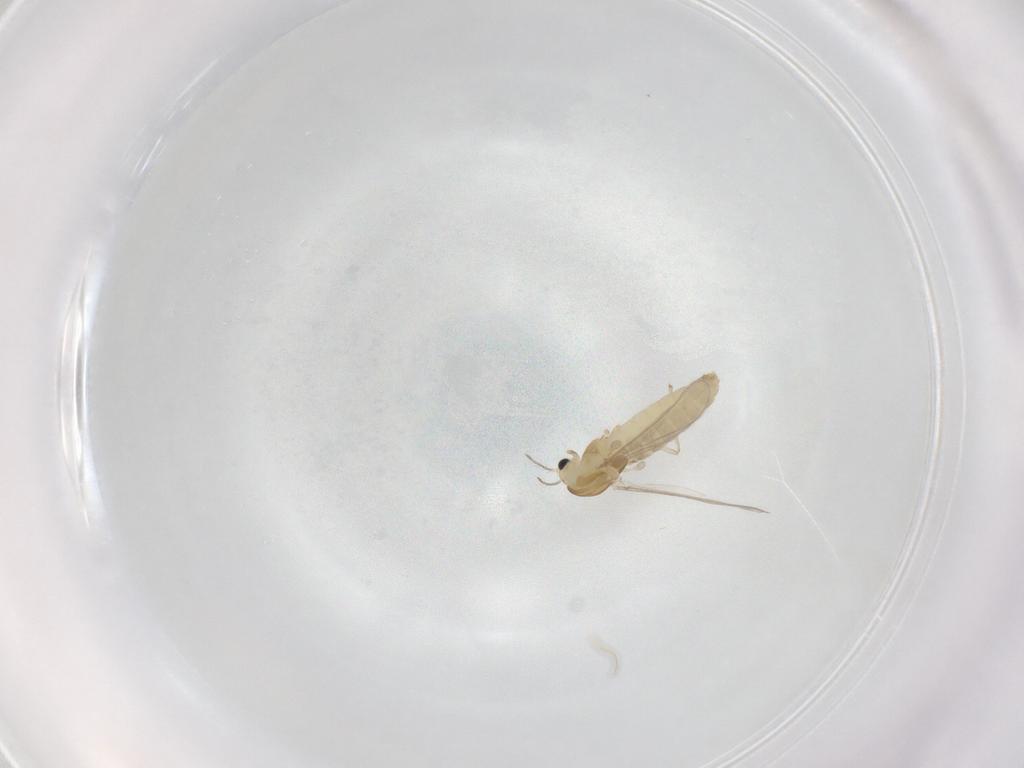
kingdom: Animalia
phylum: Arthropoda
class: Insecta
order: Diptera
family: Chironomidae
